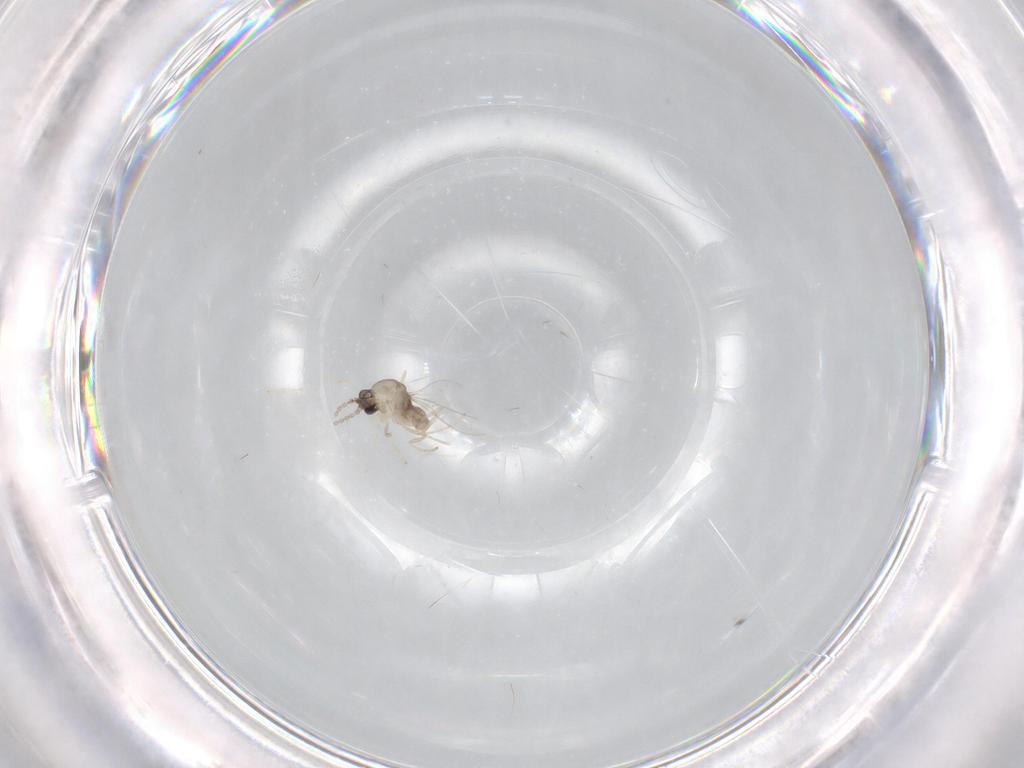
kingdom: Animalia
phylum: Arthropoda
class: Insecta
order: Diptera
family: Cecidomyiidae
